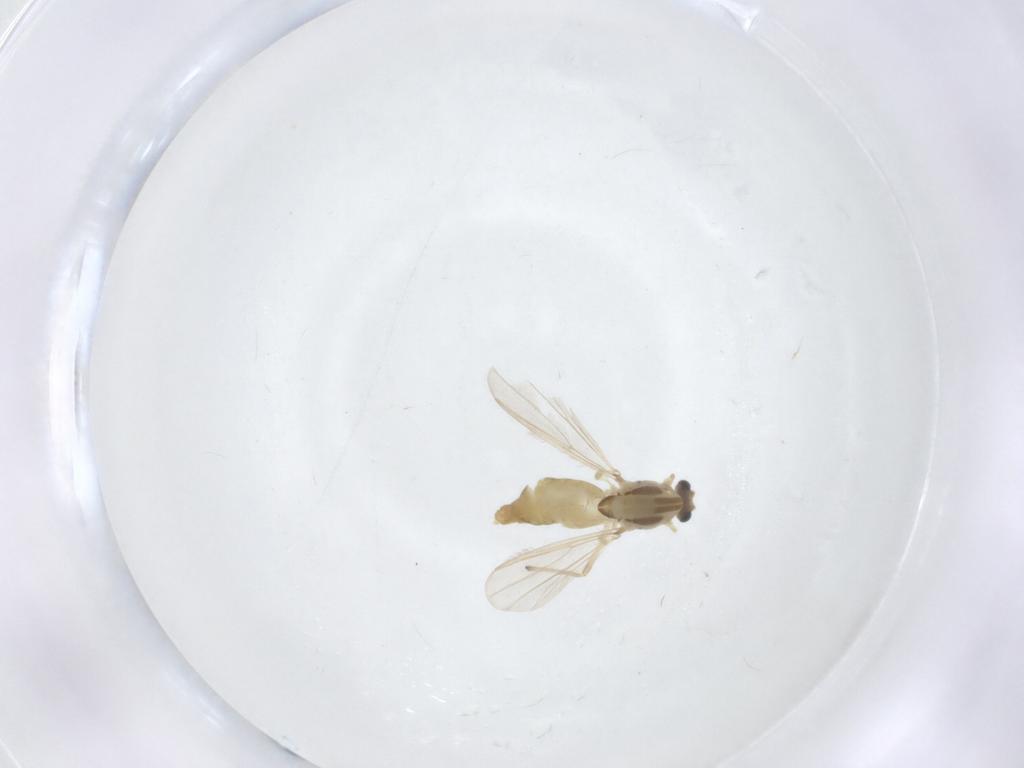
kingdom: Animalia
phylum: Arthropoda
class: Insecta
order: Diptera
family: Chironomidae
